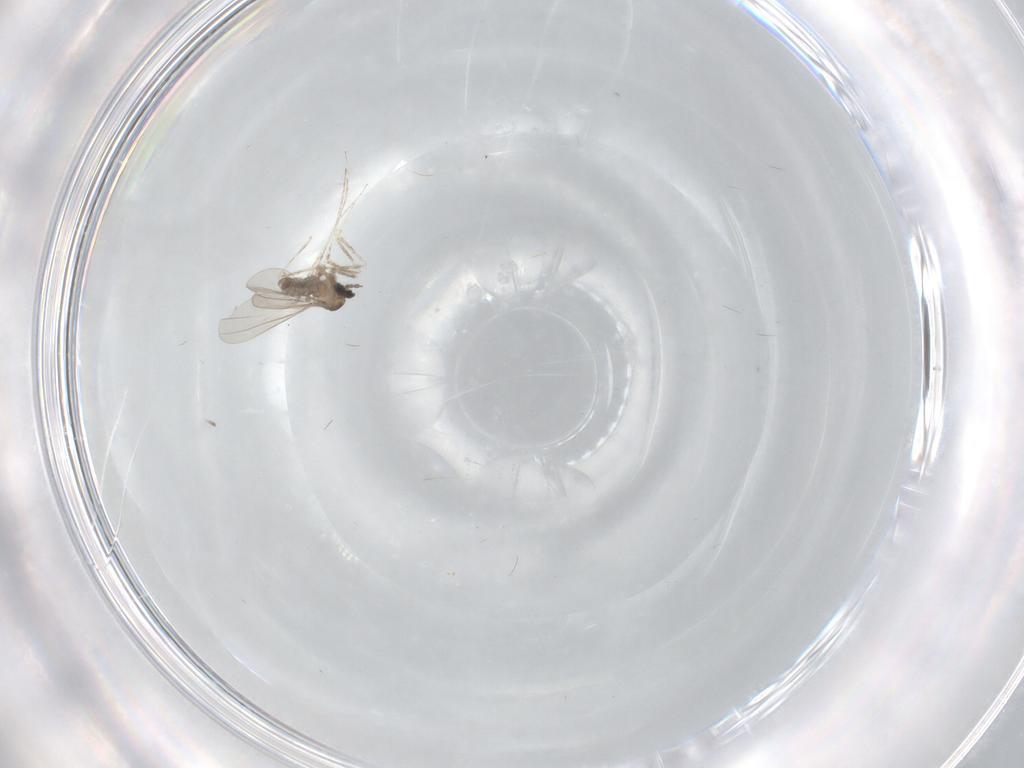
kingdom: Animalia
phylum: Arthropoda
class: Insecta
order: Diptera
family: Cecidomyiidae
